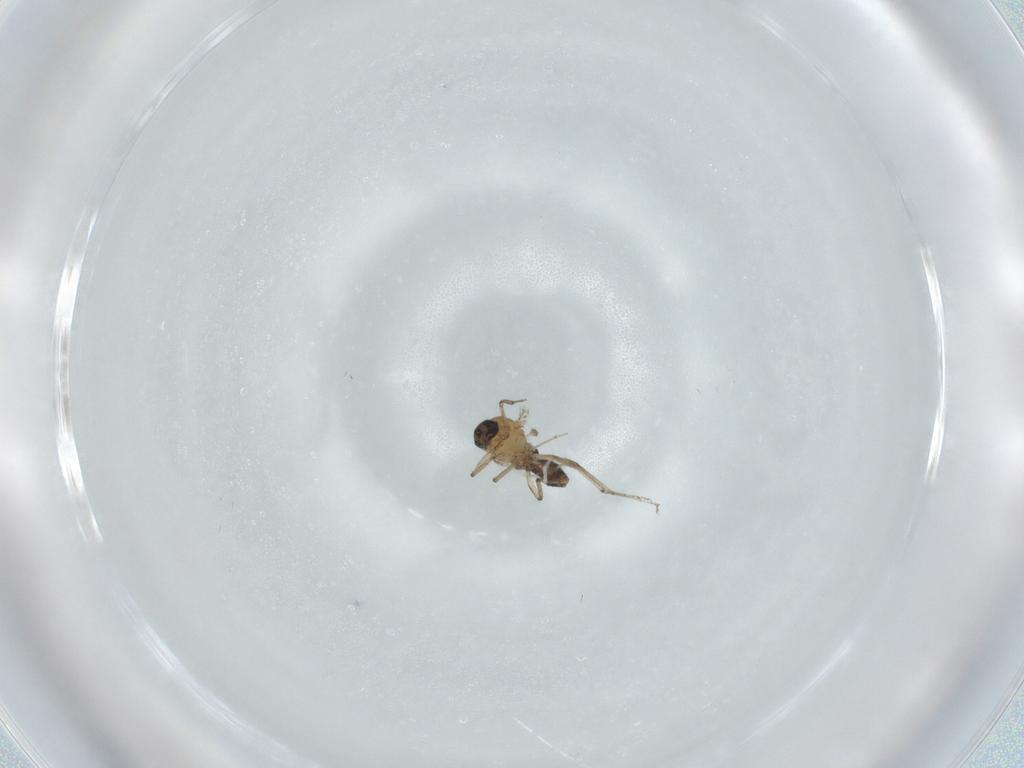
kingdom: Animalia
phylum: Arthropoda
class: Insecta
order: Diptera
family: Ceratopogonidae
